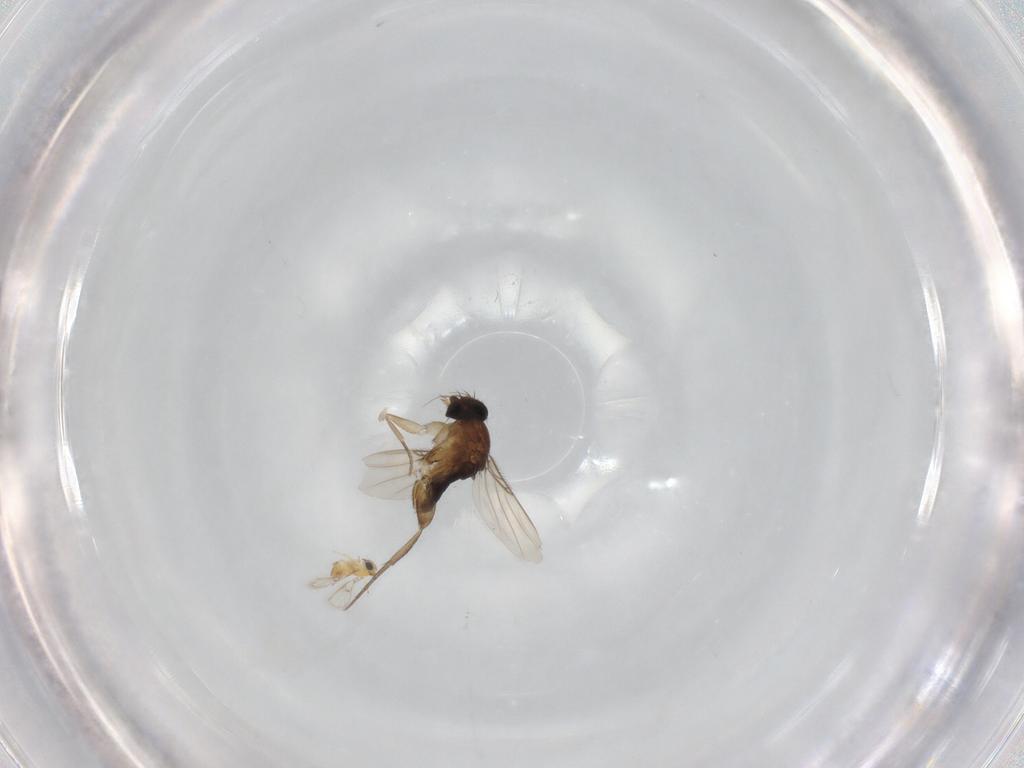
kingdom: Animalia
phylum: Arthropoda
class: Insecta
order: Diptera
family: Phoridae
